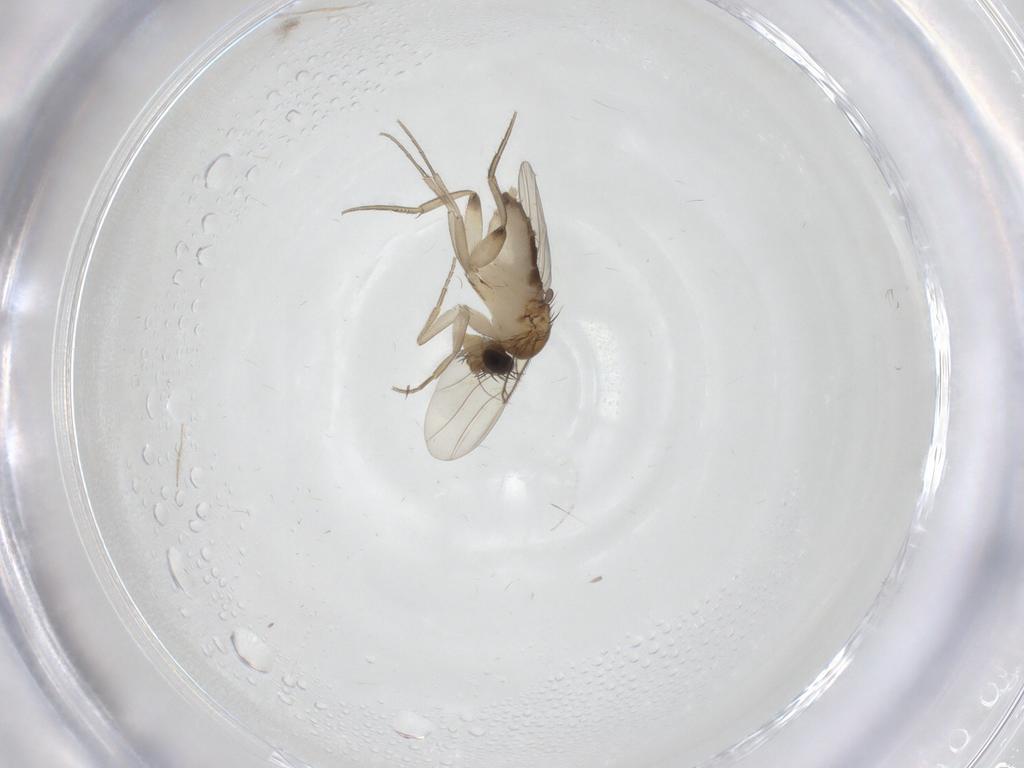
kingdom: Animalia
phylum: Arthropoda
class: Insecta
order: Diptera
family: Phoridae
